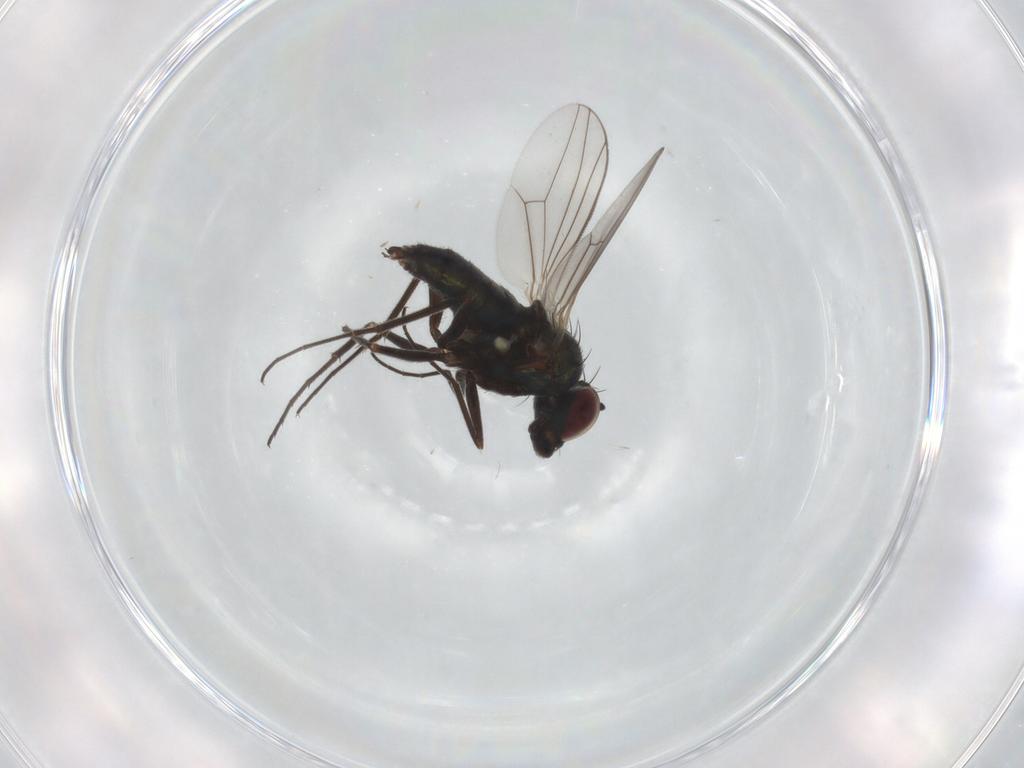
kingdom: Animalia
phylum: Arthropoda
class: Insecta
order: Diptera
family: Dolichopodidae
